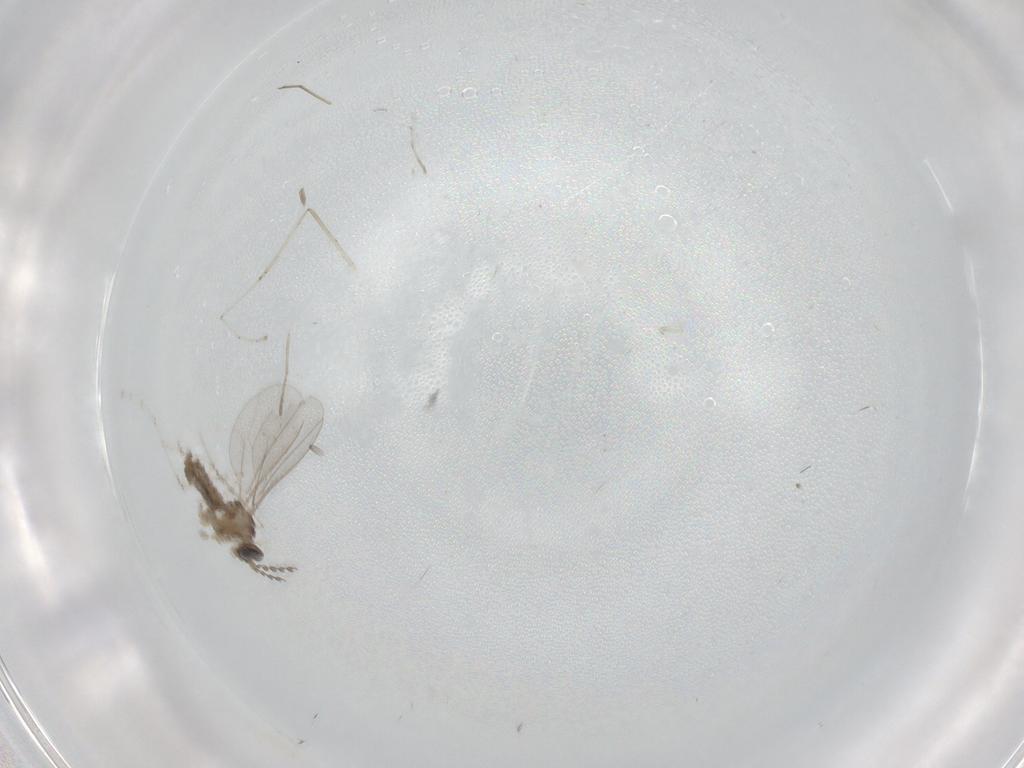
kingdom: Animalia
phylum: Arthropoda
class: Insecta
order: Diptera
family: Cecidomyiidae
